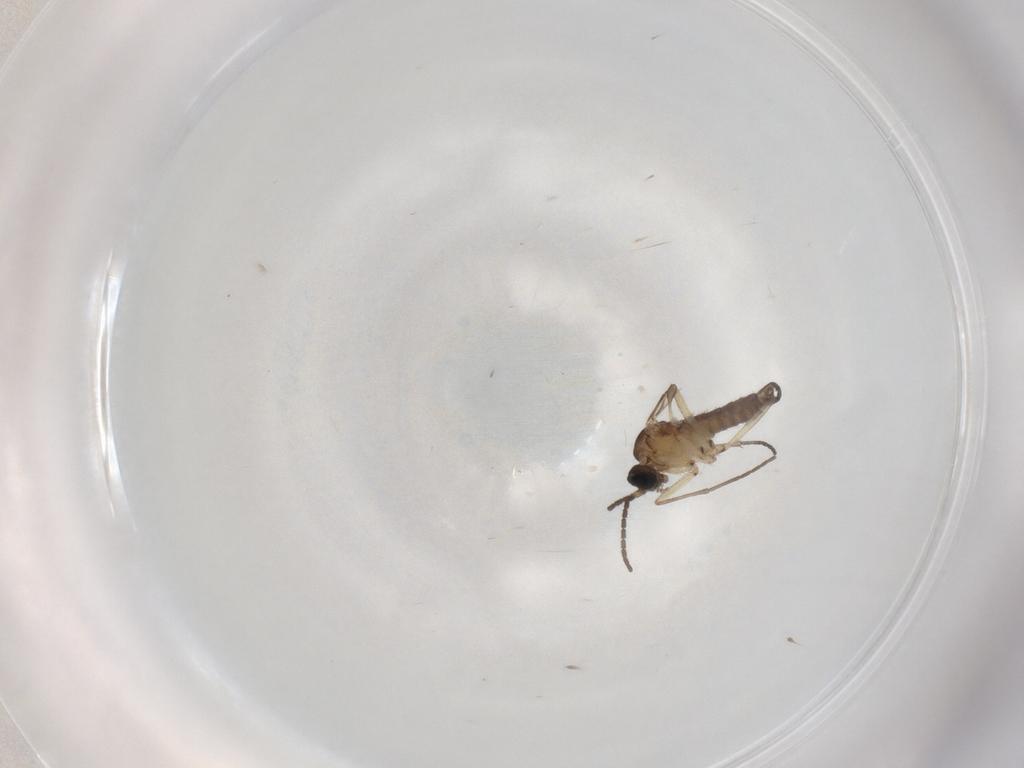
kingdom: Animalia
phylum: Arthropoda
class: Insecta
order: Diptera
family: Sciaridae
